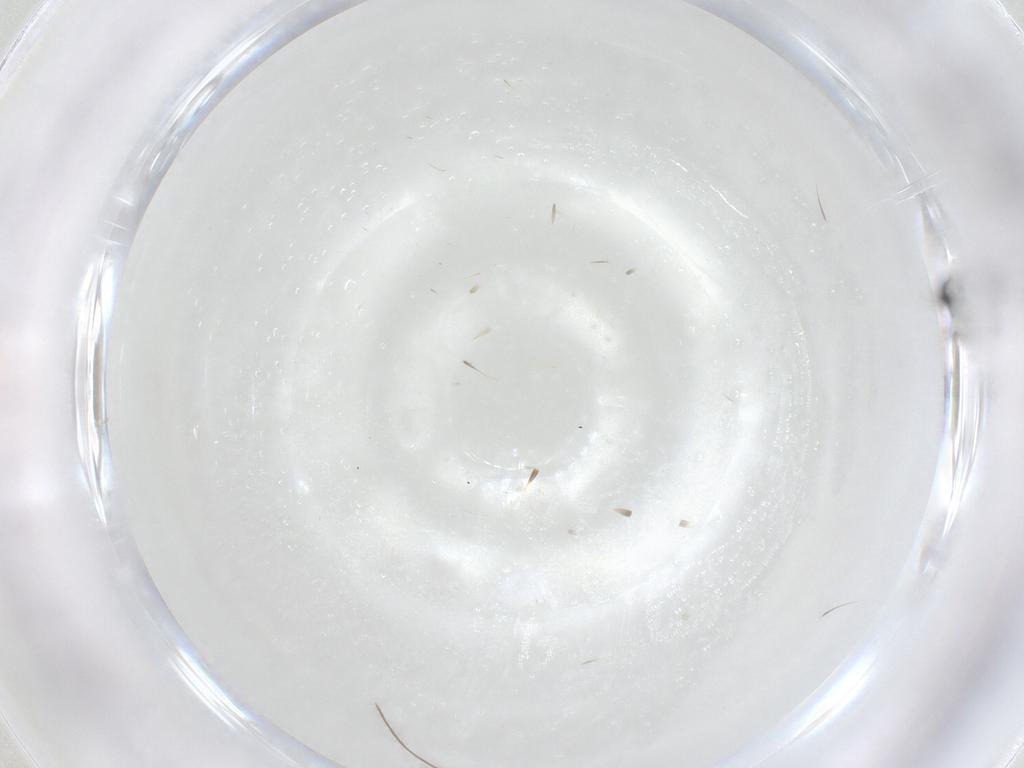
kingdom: Animalia
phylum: Arthropoda
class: Insecta
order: Hymenoptera
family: Scelionidae
